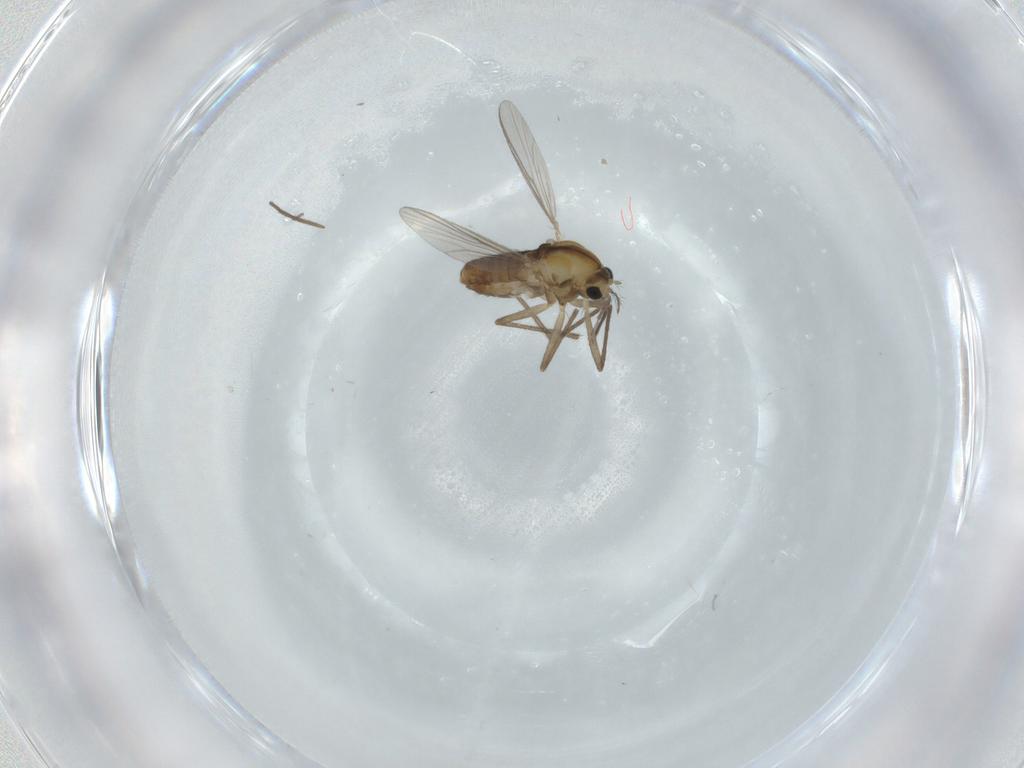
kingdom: Animalia
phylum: Arthropoda
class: Insecta
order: Diptera
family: Chironomidae
